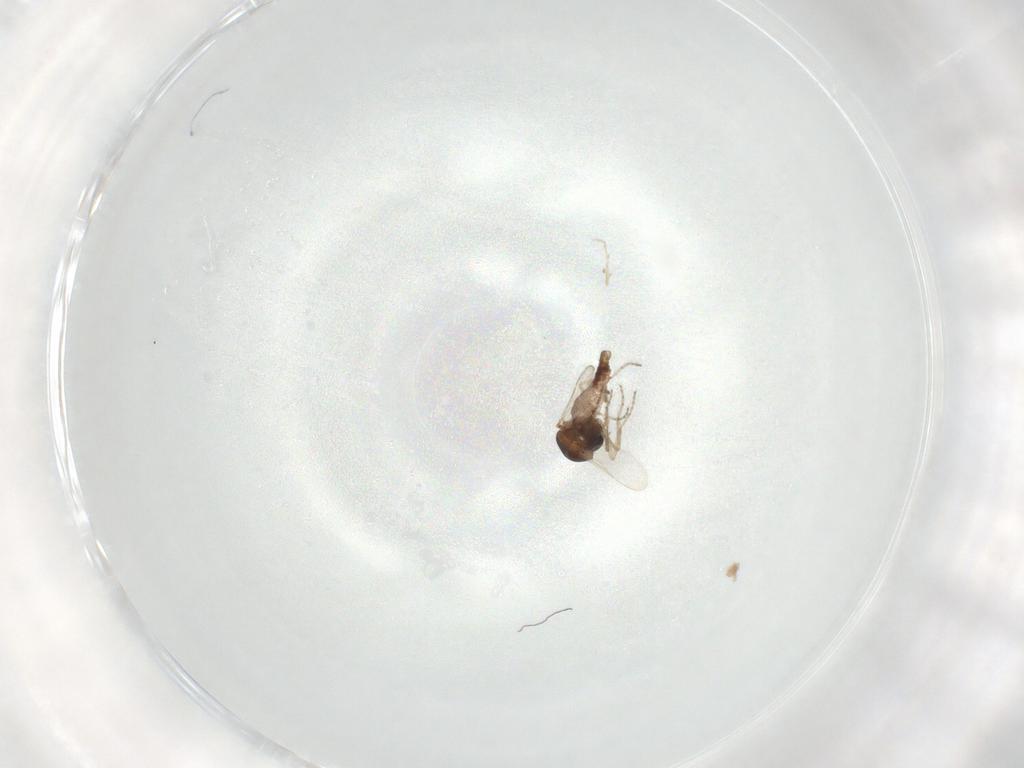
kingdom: Animalia
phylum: Arthropoda
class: Insecta
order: Diptera
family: Ceratopogonidae
